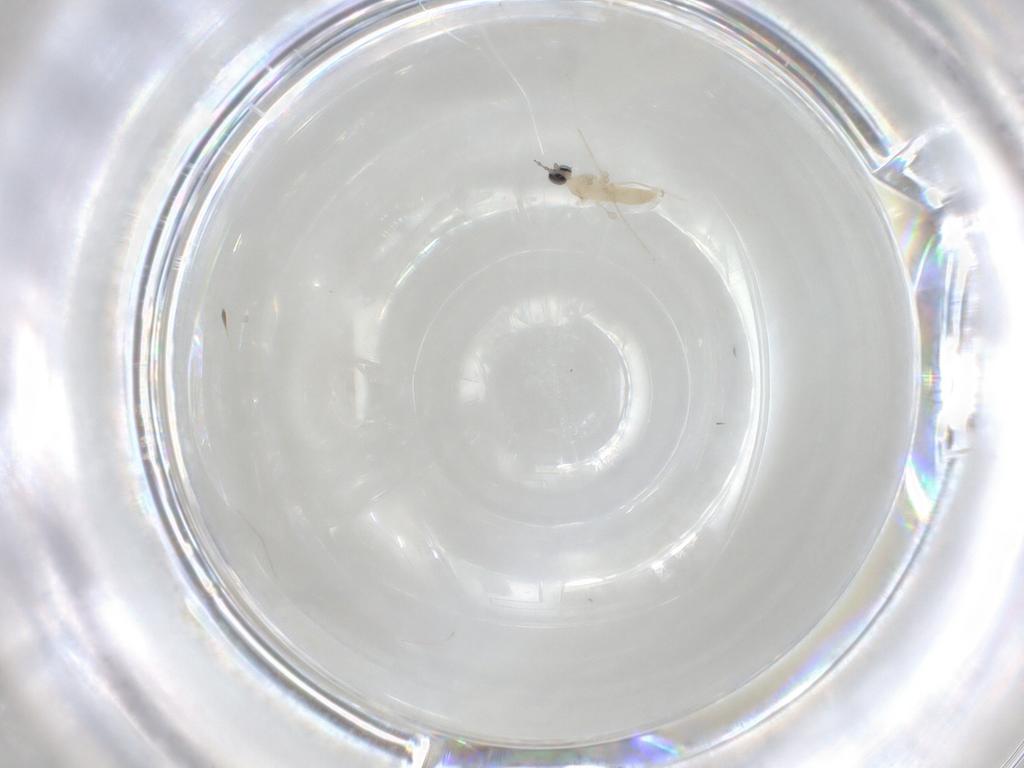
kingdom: Animalia
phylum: Arthropoda
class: Insecta
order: Diptera
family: Cecidomyiidae
